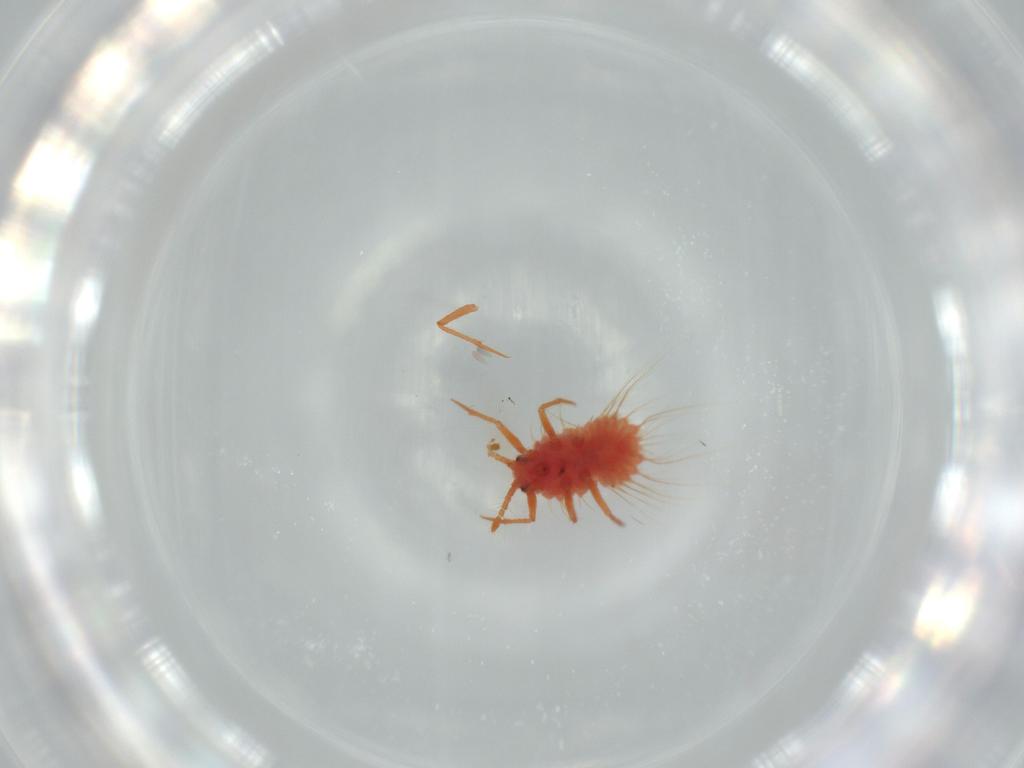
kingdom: Animalia
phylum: Arthropoda
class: Insecta
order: Hemiptera
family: Monophlebidae
